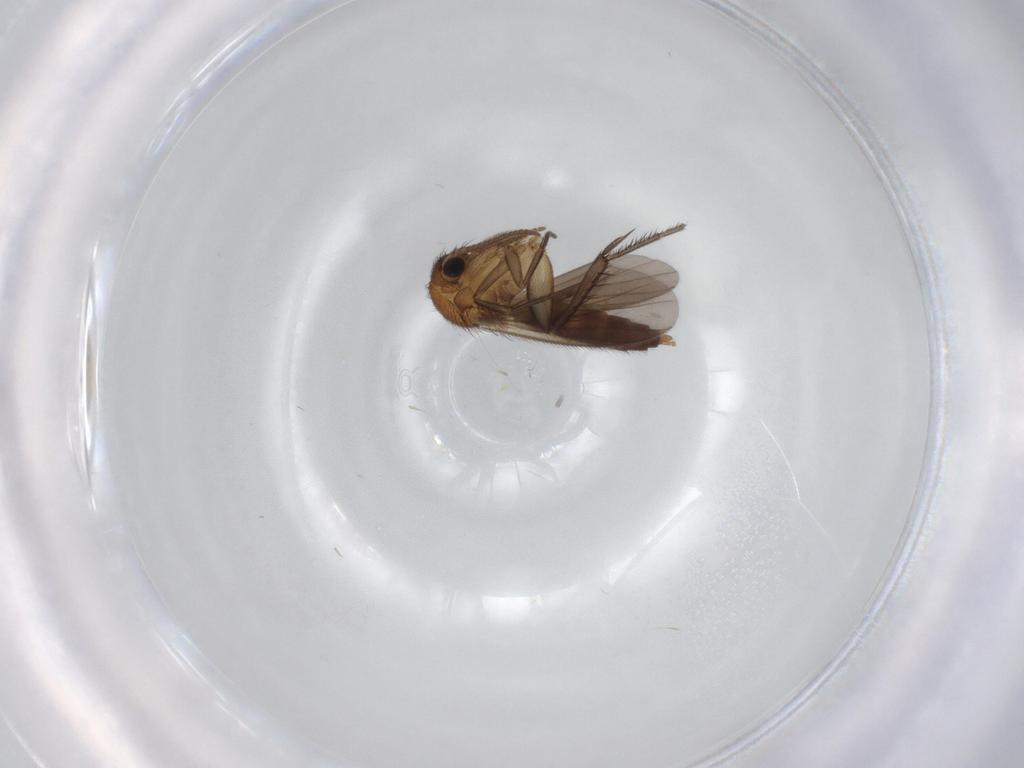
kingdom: Animalia
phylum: Arthropoda
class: Insecta
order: Diptera
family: Mycetophilidae
